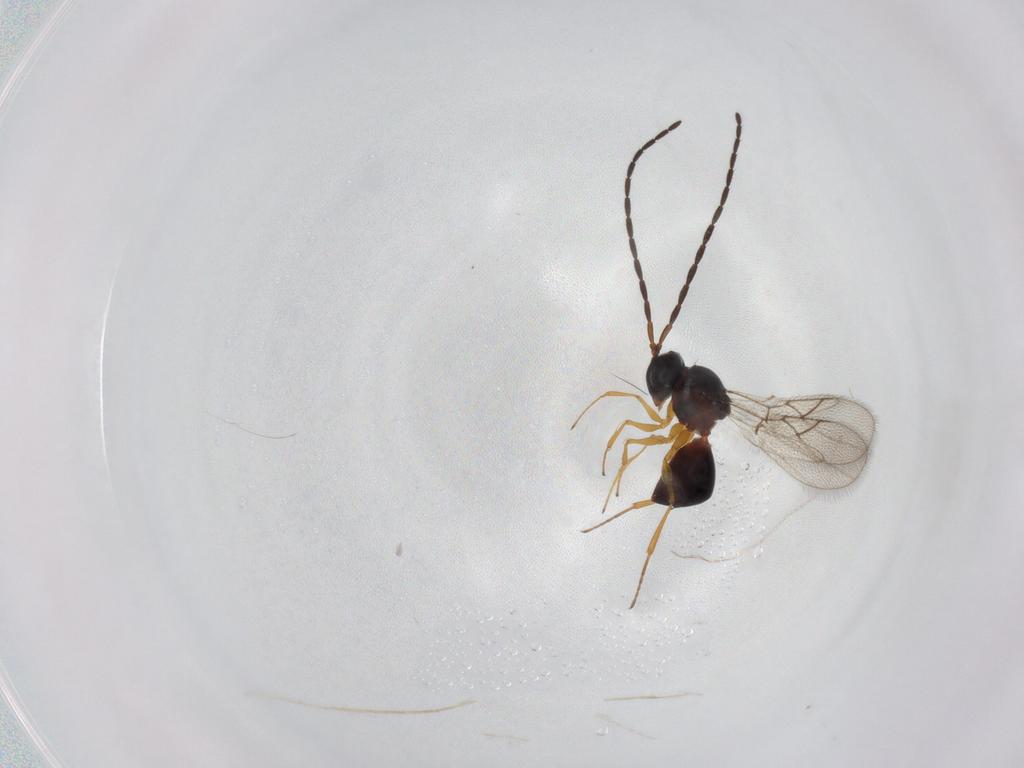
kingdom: Animalia
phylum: Arthropoda
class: Insecta
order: Hymenoptera
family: Figitidae
